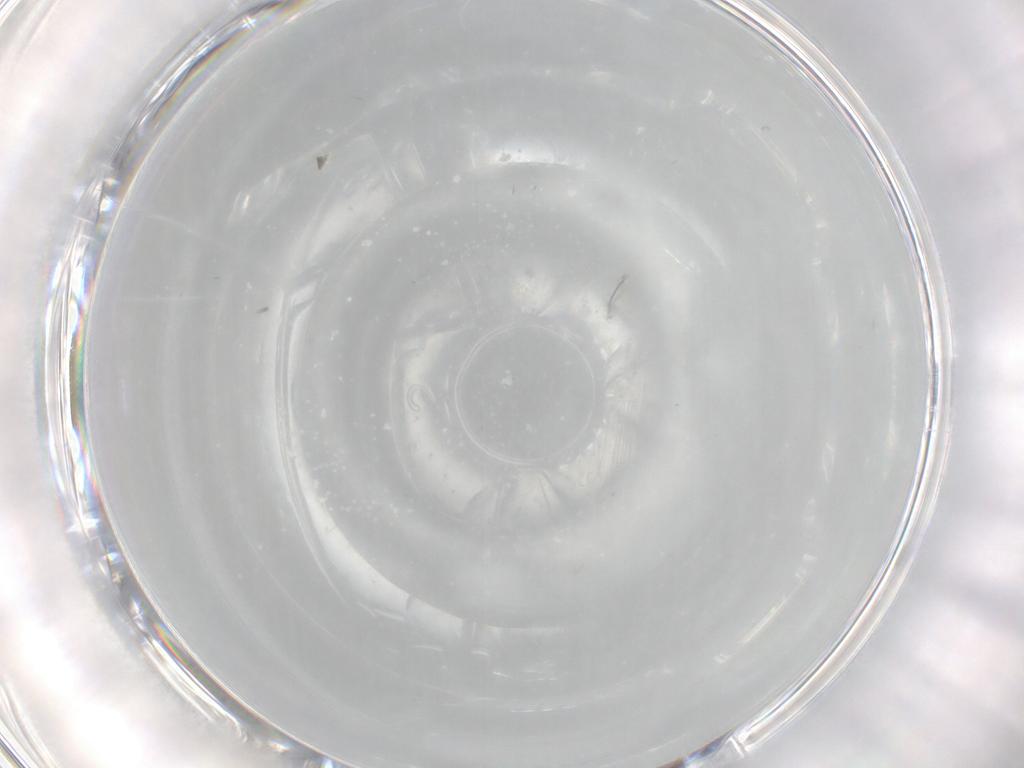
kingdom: Animalia
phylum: Arthropoda
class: Insecta
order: Diptera
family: Chironomidae
